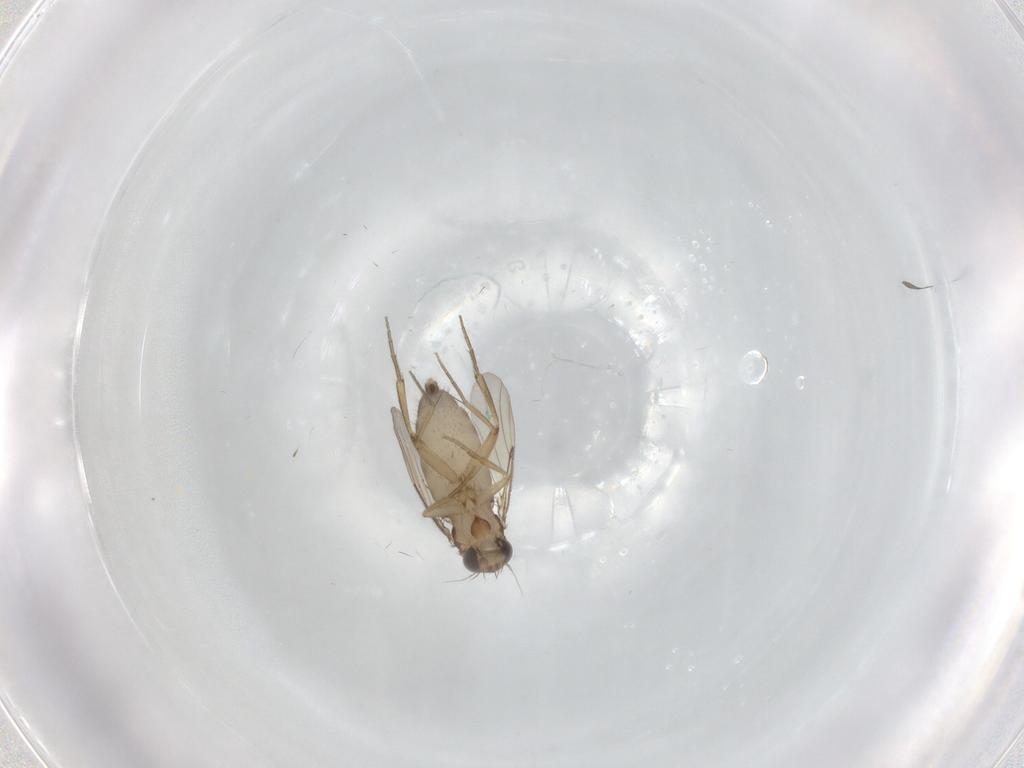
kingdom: Animalia
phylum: Arthropoda
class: Insecta
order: Diptera
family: Phoridae
